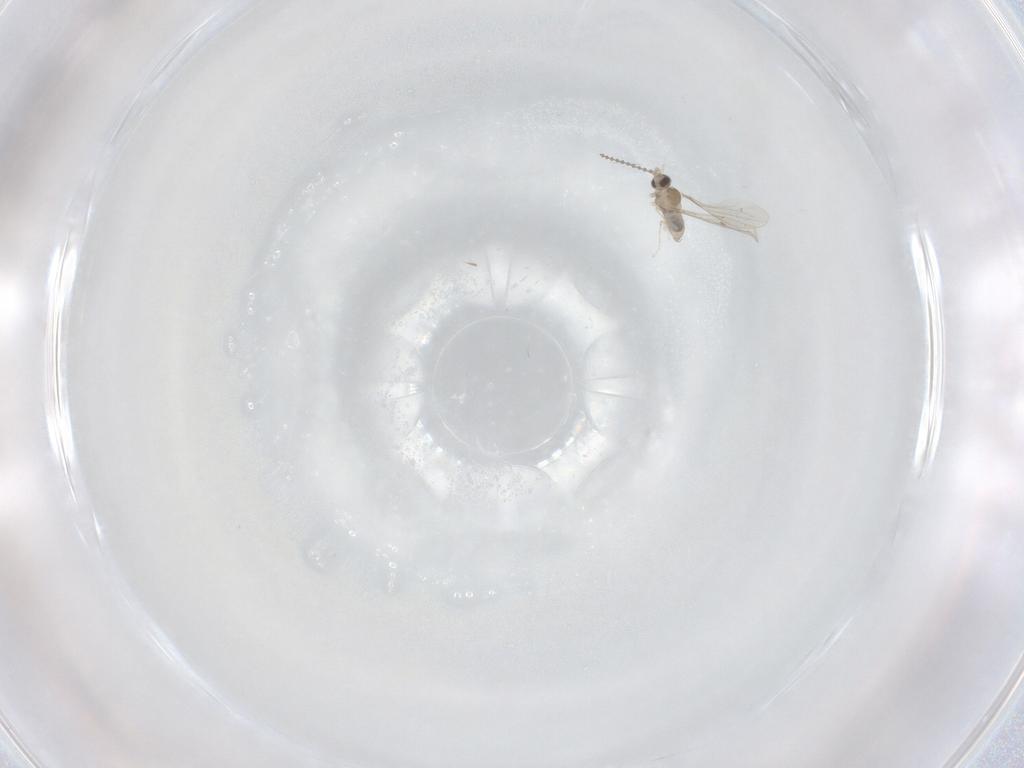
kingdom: Animalia
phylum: Arthropoda
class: Insecta
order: Diptera
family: Cecidomyiidae
